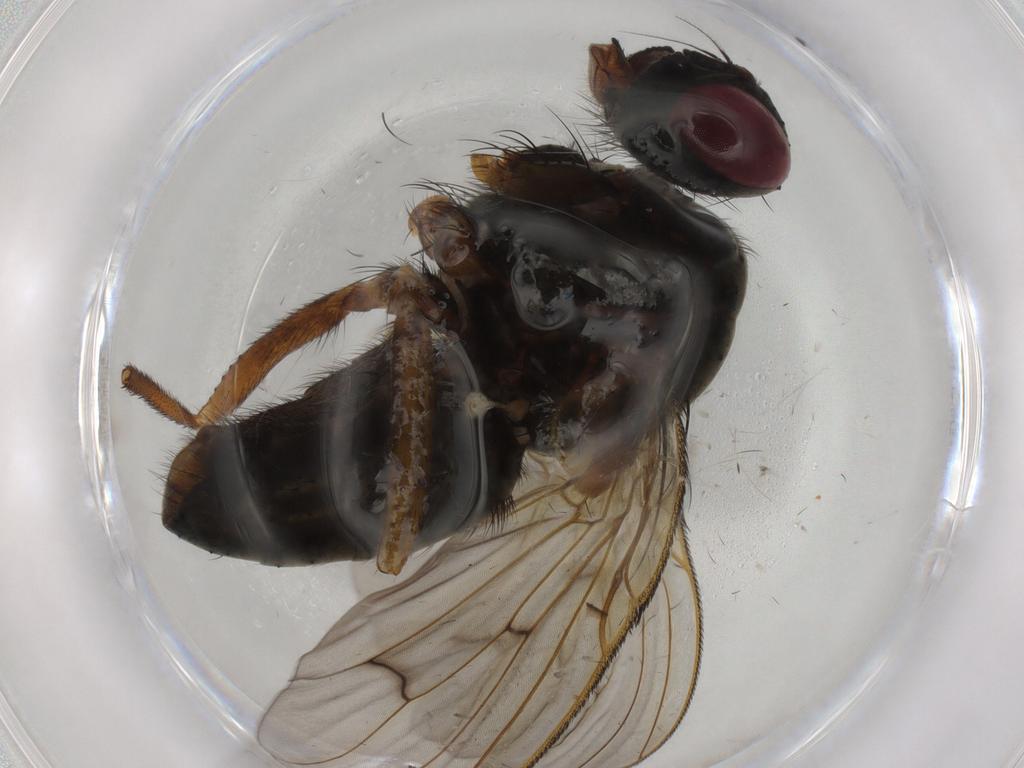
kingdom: Animalia
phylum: Arthropoda
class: Insecta
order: Diptera
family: Muscidae
